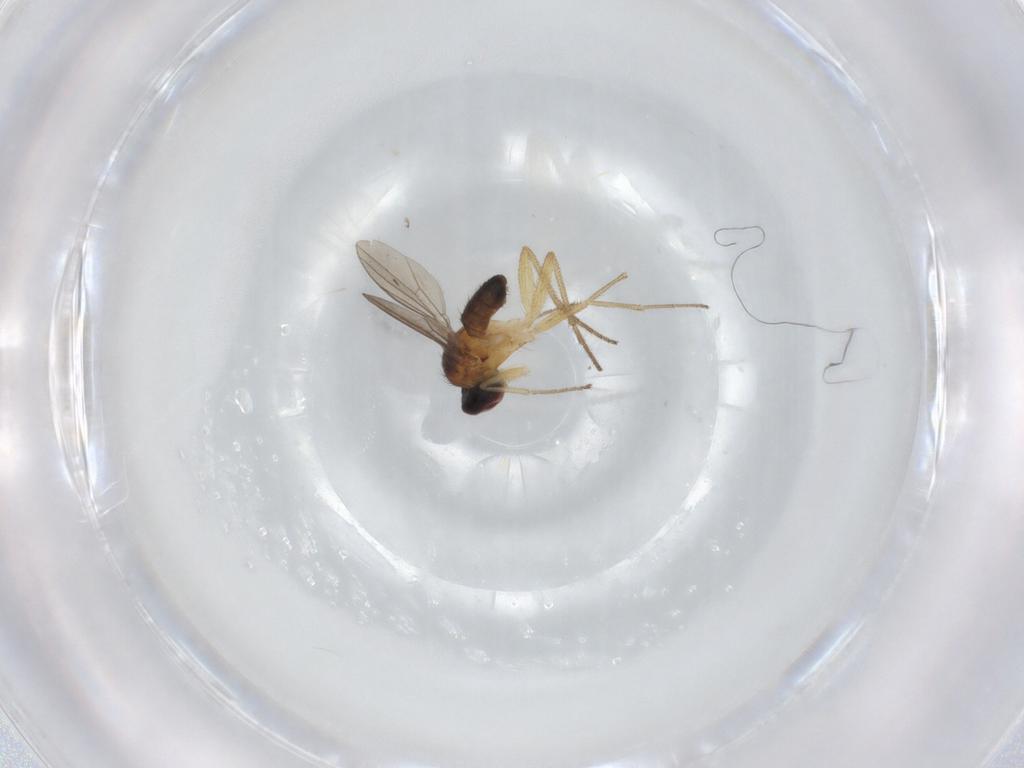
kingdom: Animalia
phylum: Arthropoda
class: Insecta
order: Diptera
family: Dolichopodidae
